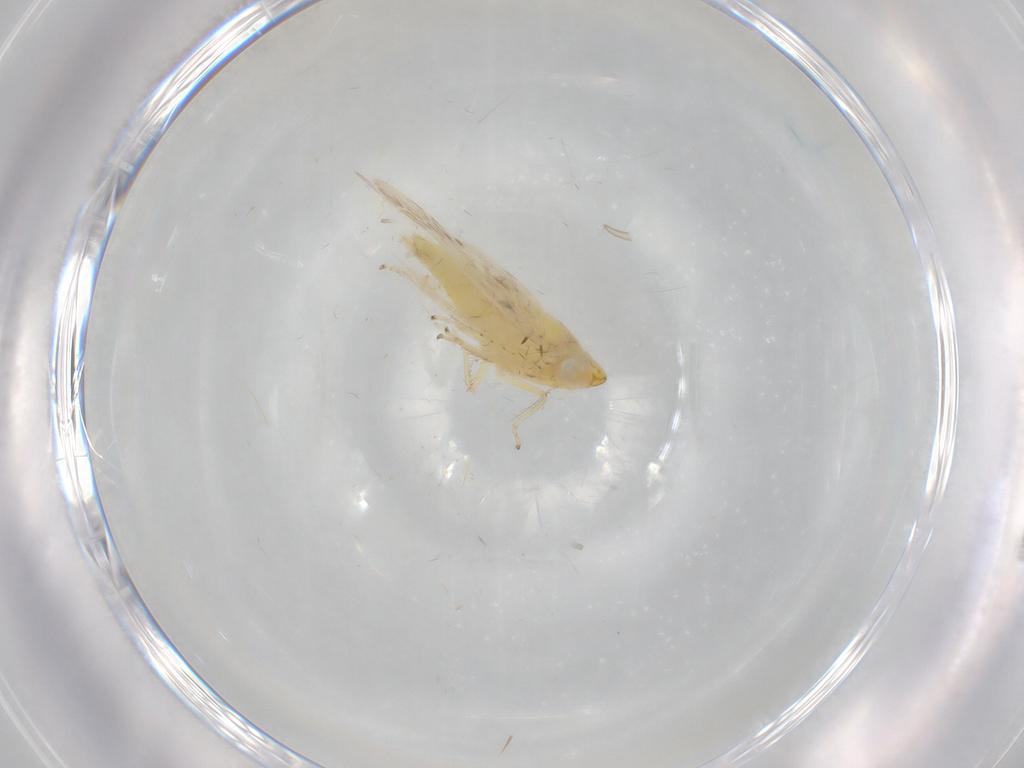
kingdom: Animalia
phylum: Arthropoda
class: Insecta
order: Hemiptera
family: Cicadellidae
